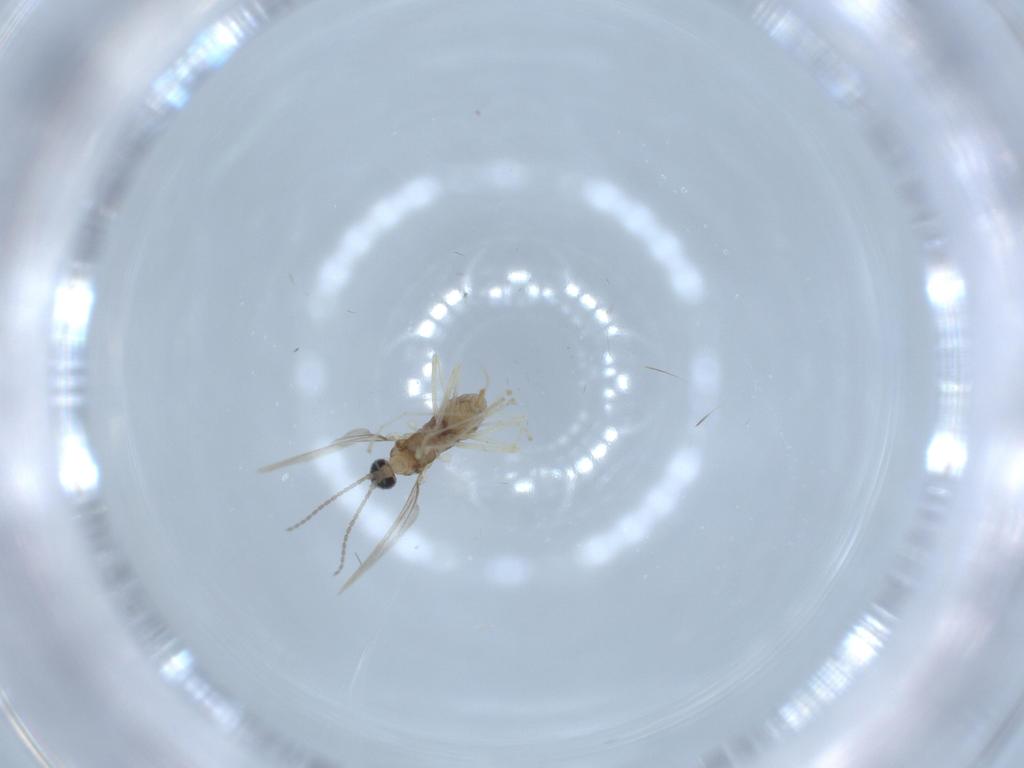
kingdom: Animalia
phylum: Arthropoda
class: Insecta
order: Diptera
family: Cecidomyiidae
